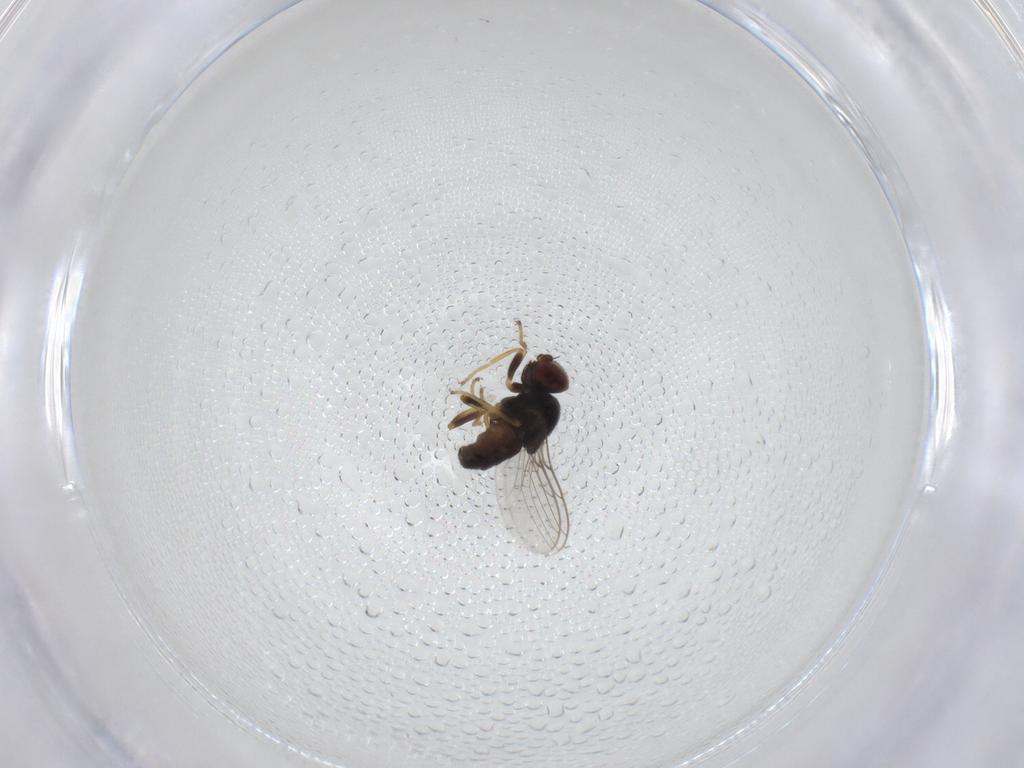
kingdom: Animalia
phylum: Arthropoda
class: Insecta
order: Diptera
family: Chloropidae
